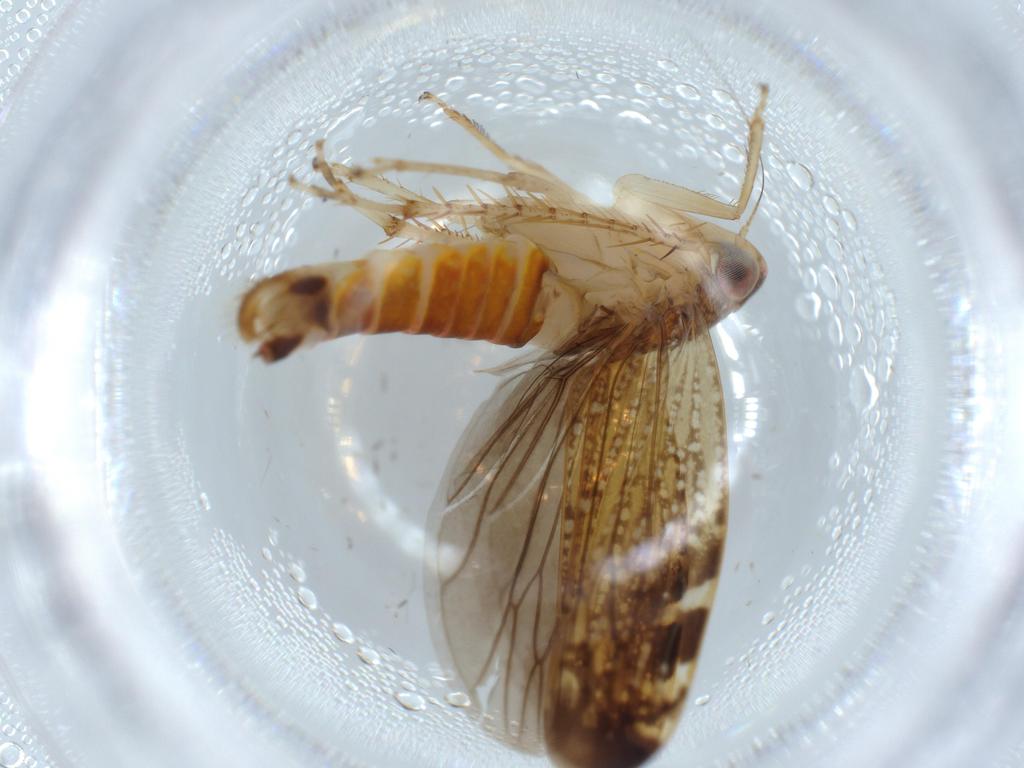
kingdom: Animalia
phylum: Arthropoda
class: Insecta
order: Hemiptera
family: Cicadellidae
